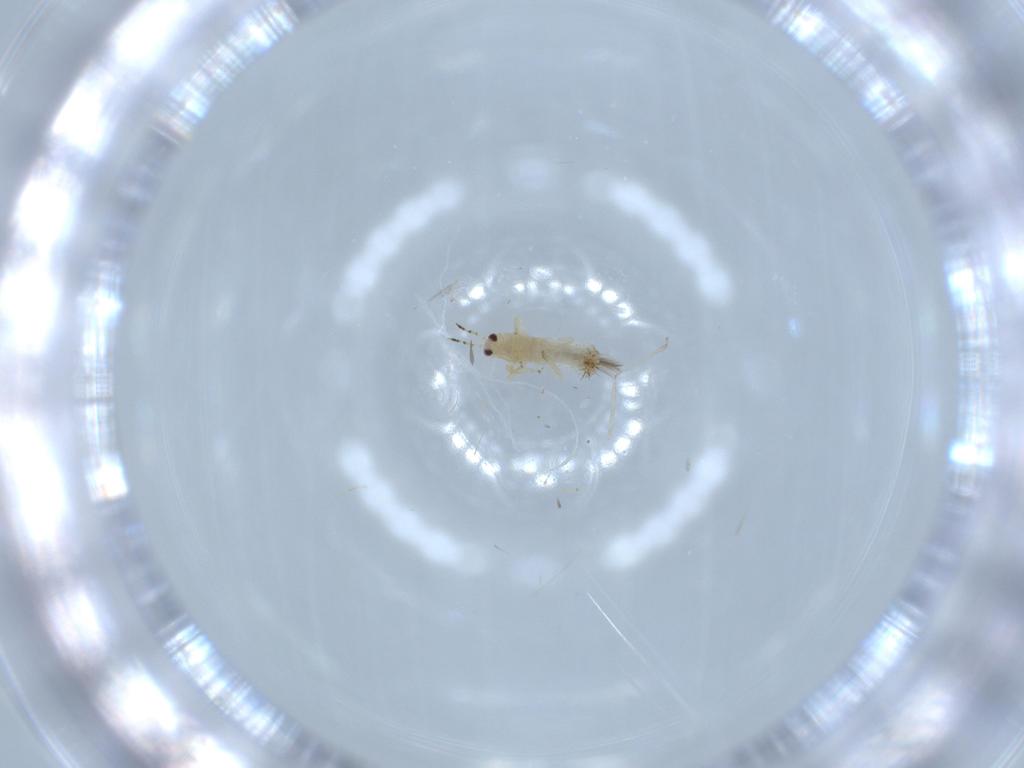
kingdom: Animalia
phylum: Arthropoda
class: Insecta
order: Thysanoptera
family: Thripidae
